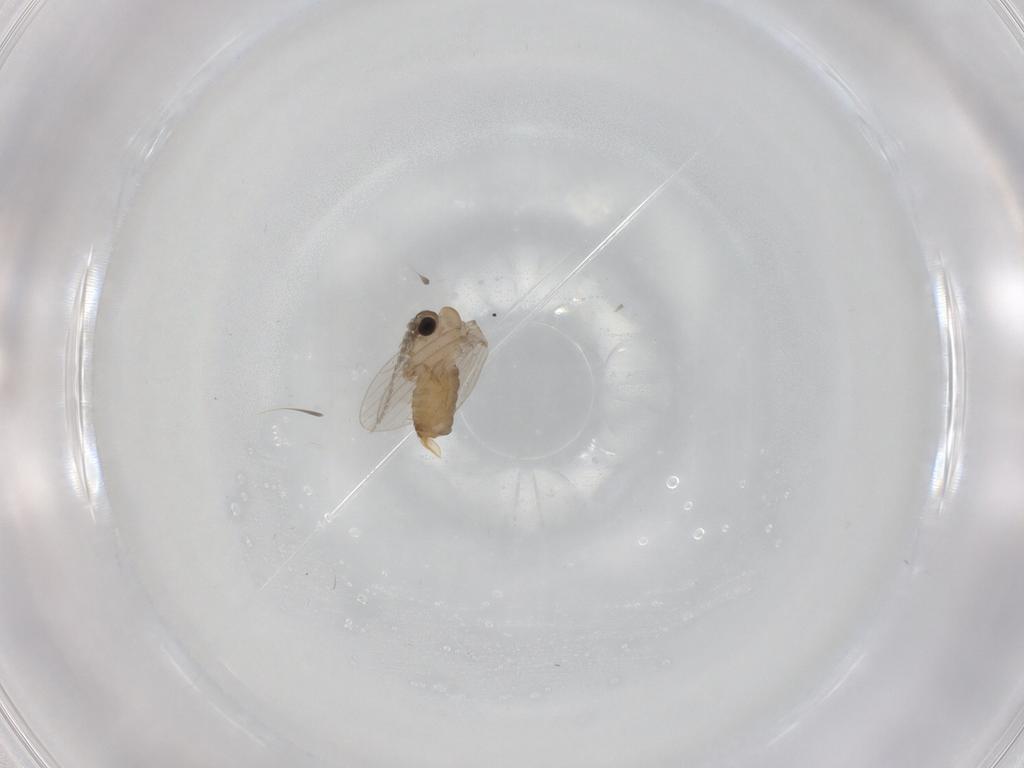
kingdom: Animalia
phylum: Arthropoda
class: Insecta
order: Diptera
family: Psychodidae
